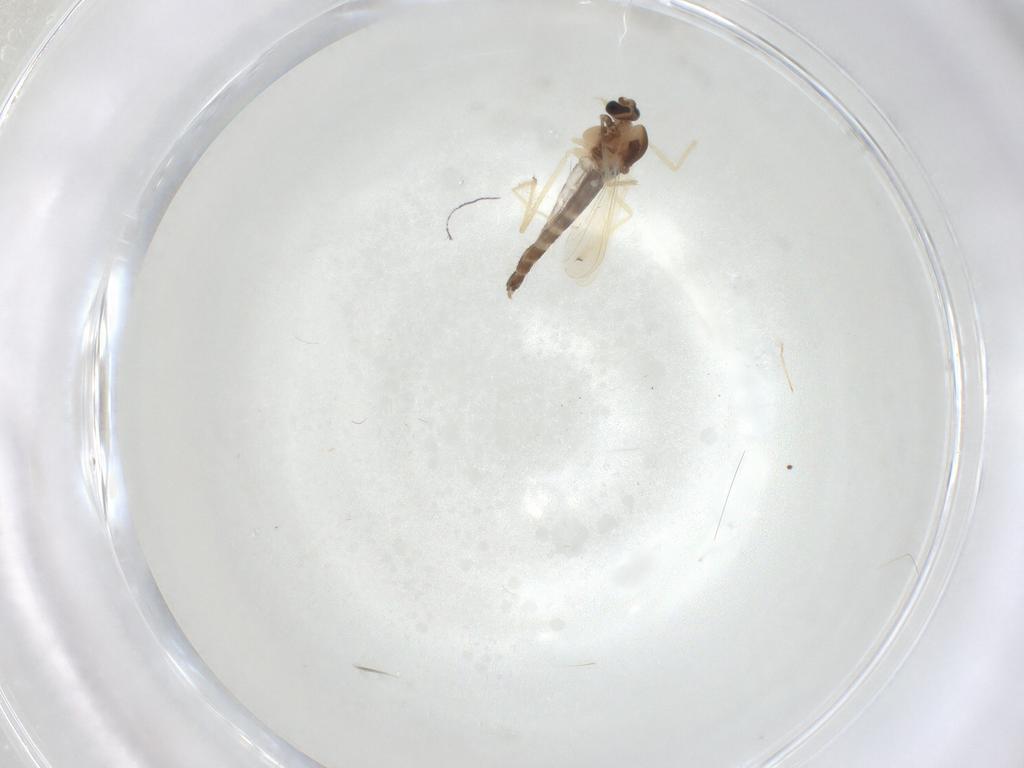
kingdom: Animalia
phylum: Arthropoda
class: Insecta
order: Diptera
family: Chironomidae
